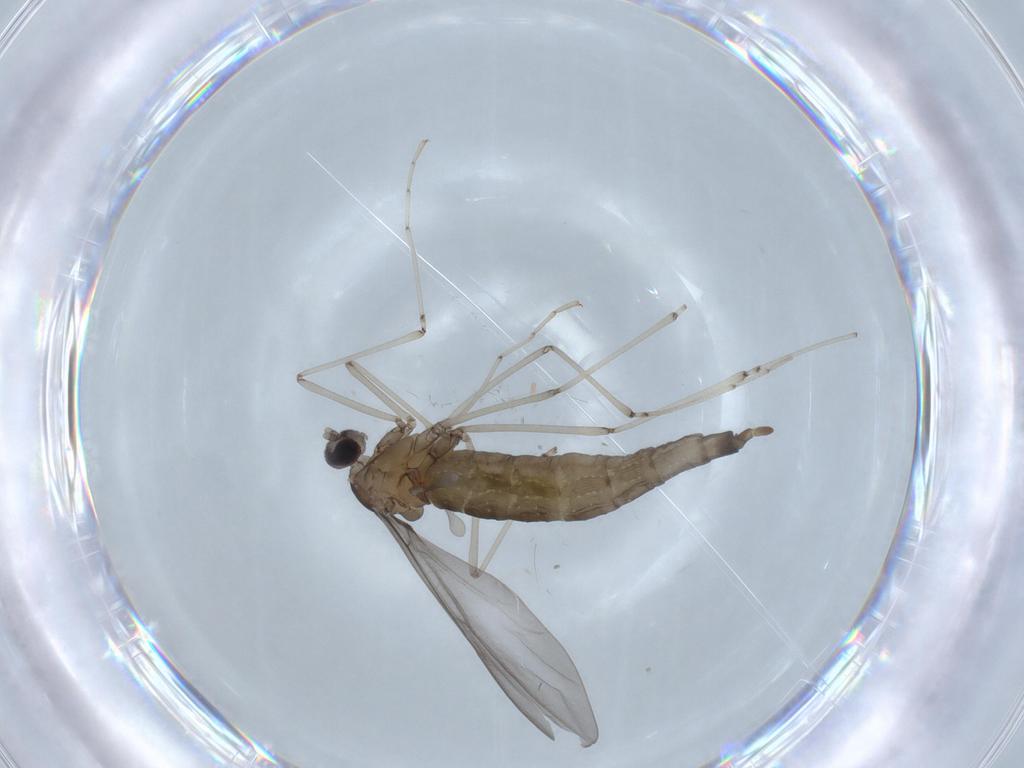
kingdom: Animalia
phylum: Arthropoda
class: Insecta
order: Diptera
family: Cecidomyiidae
